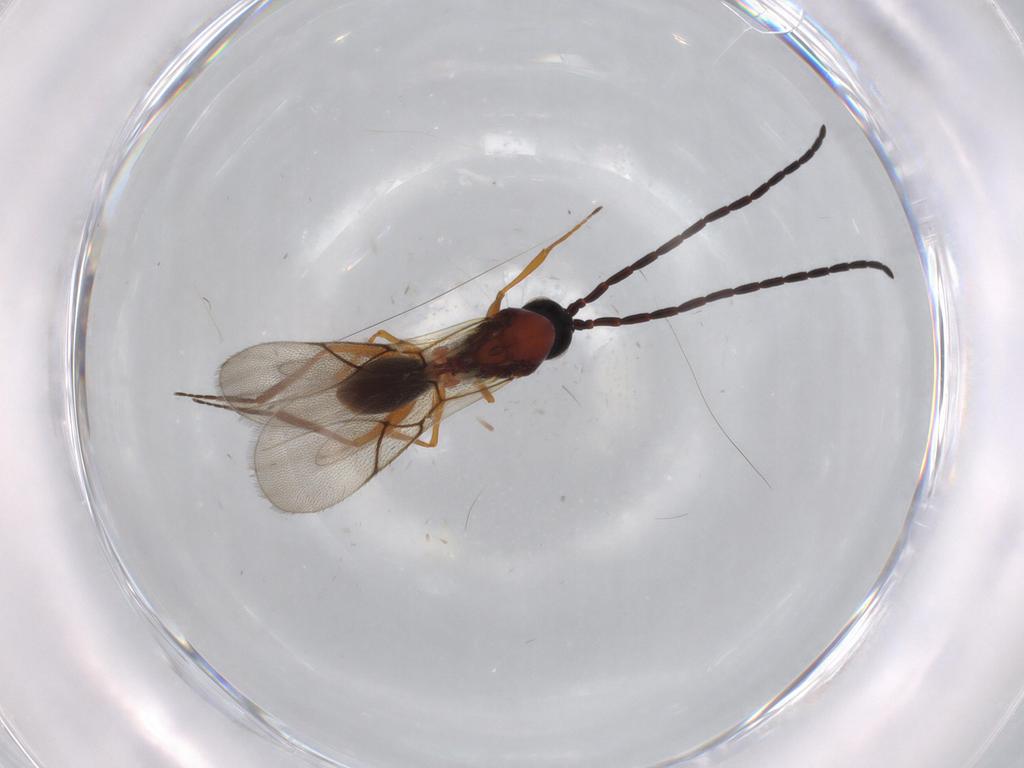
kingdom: Animalia
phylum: Arthropoda
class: Insecta
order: Hymenoptera
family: Figitidae
